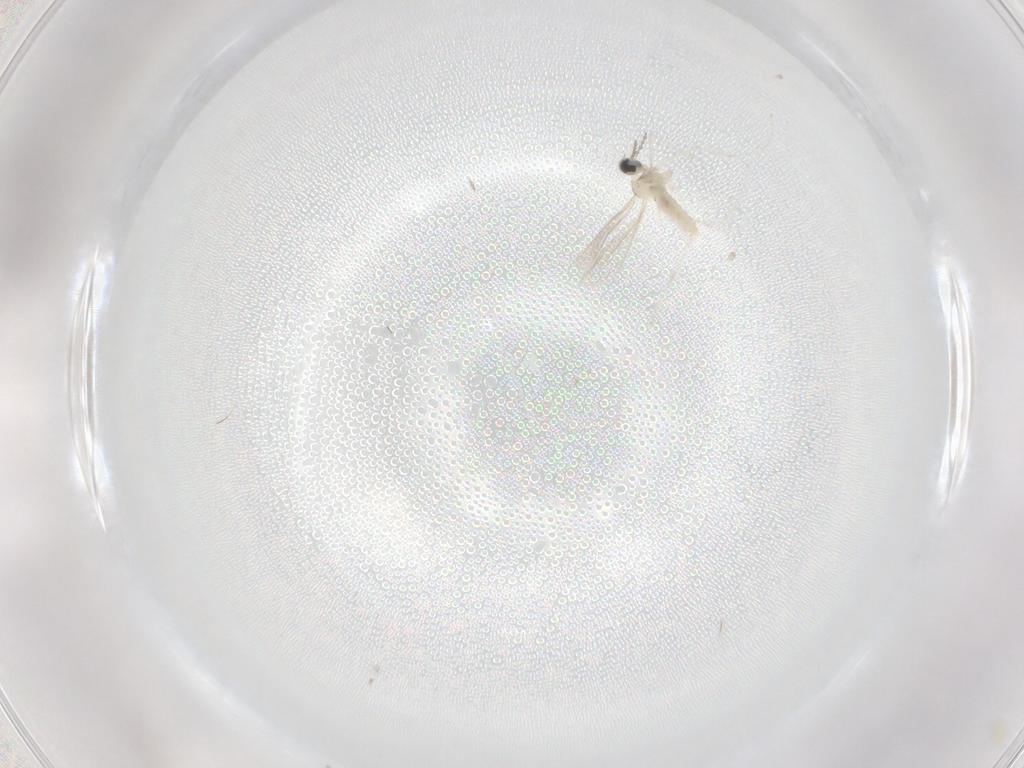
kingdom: Animalia
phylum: Arthropoda
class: Insecta
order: Diptera
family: Cecidomyiidae
